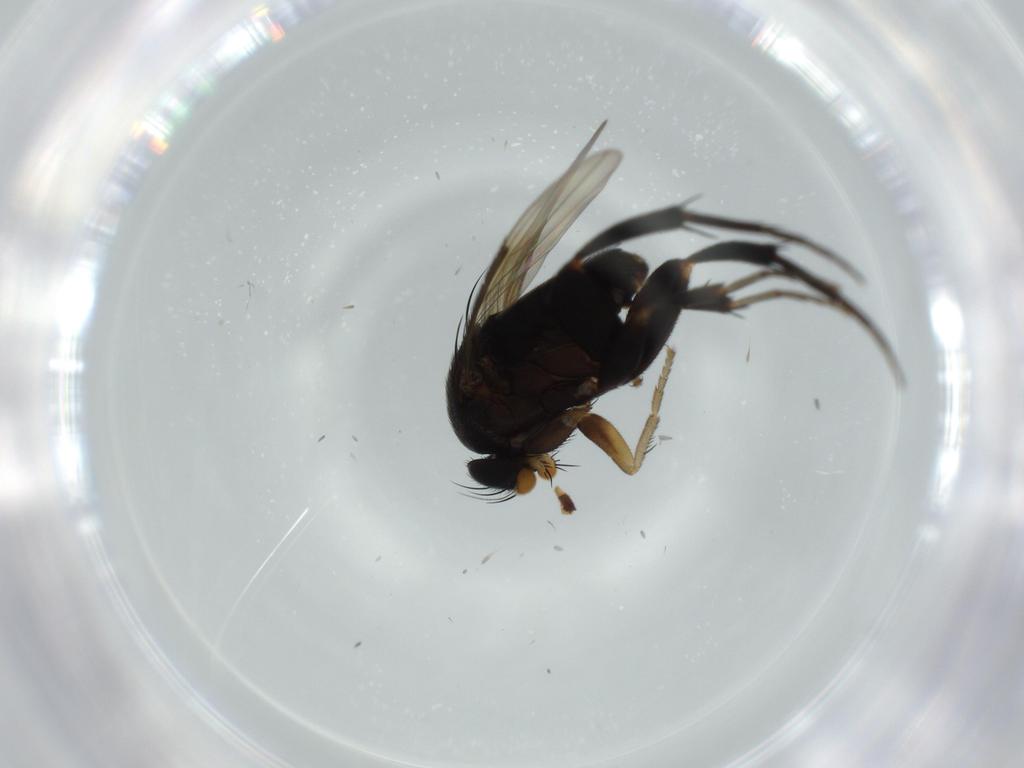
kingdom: Animalia
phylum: Arthropoda
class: Insecta
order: Diptera
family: Phoridae
